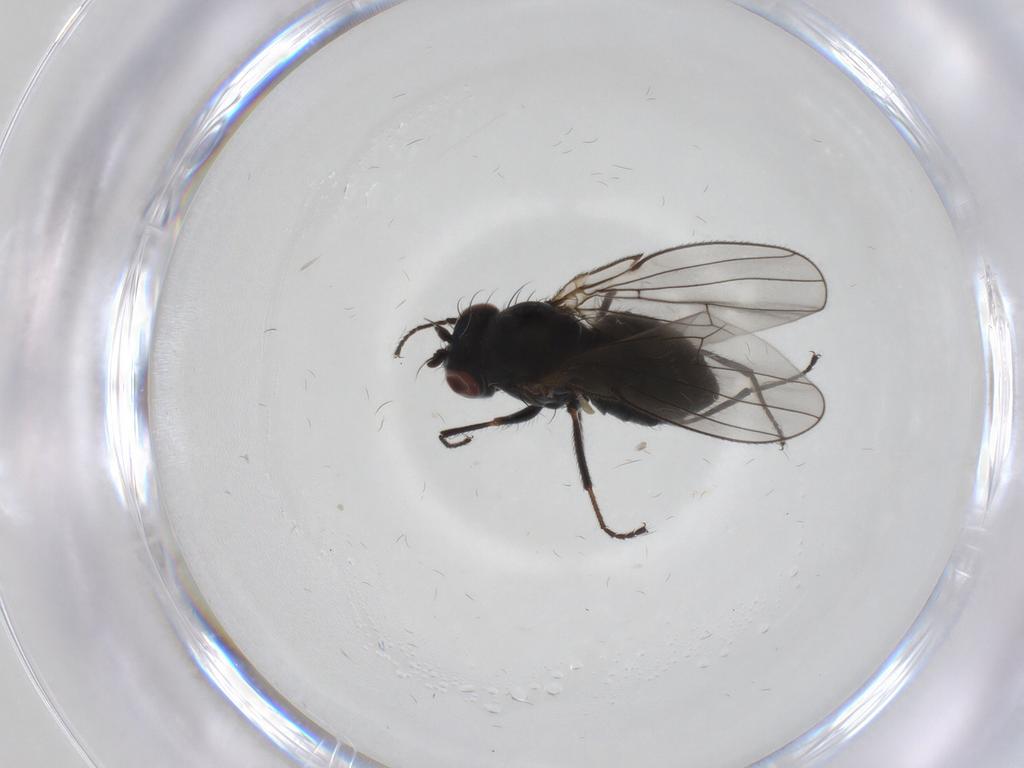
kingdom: Animalia
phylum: Arthropoda
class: Insecta
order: Diptera
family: Ephydridae
